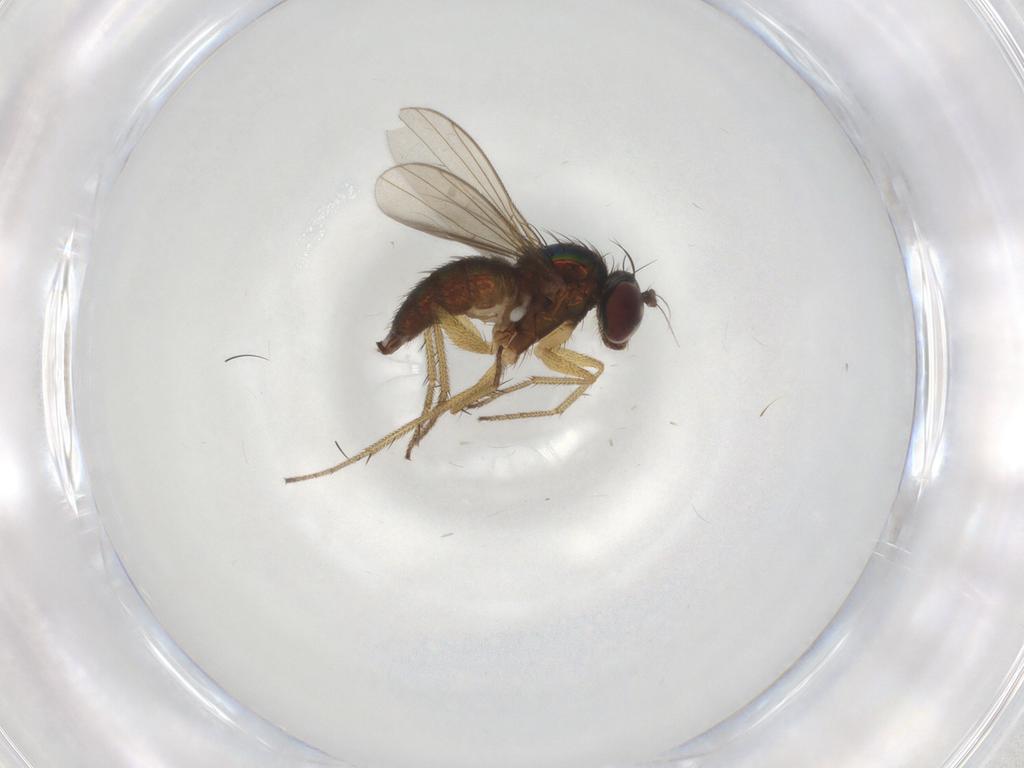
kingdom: Animalia
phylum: Arthropoda
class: Insecta
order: Diptera
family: Dolichopodidae
